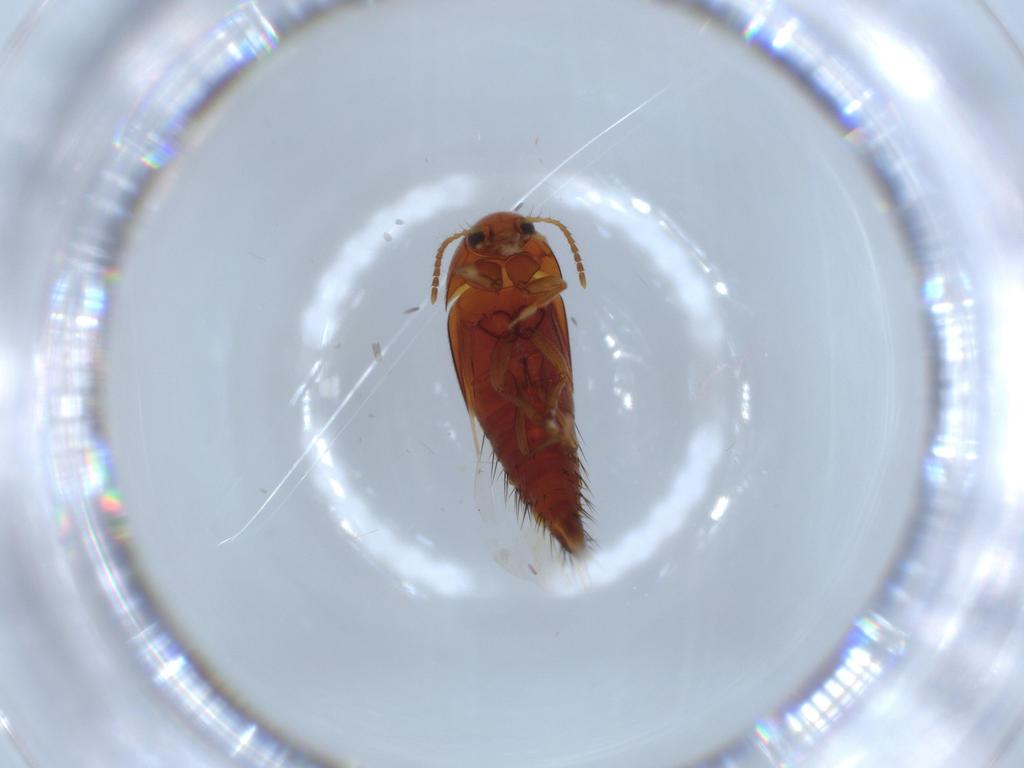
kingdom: Animalia
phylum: Arthropoda
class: Insecta
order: Coleoptera
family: Staphylinidae
